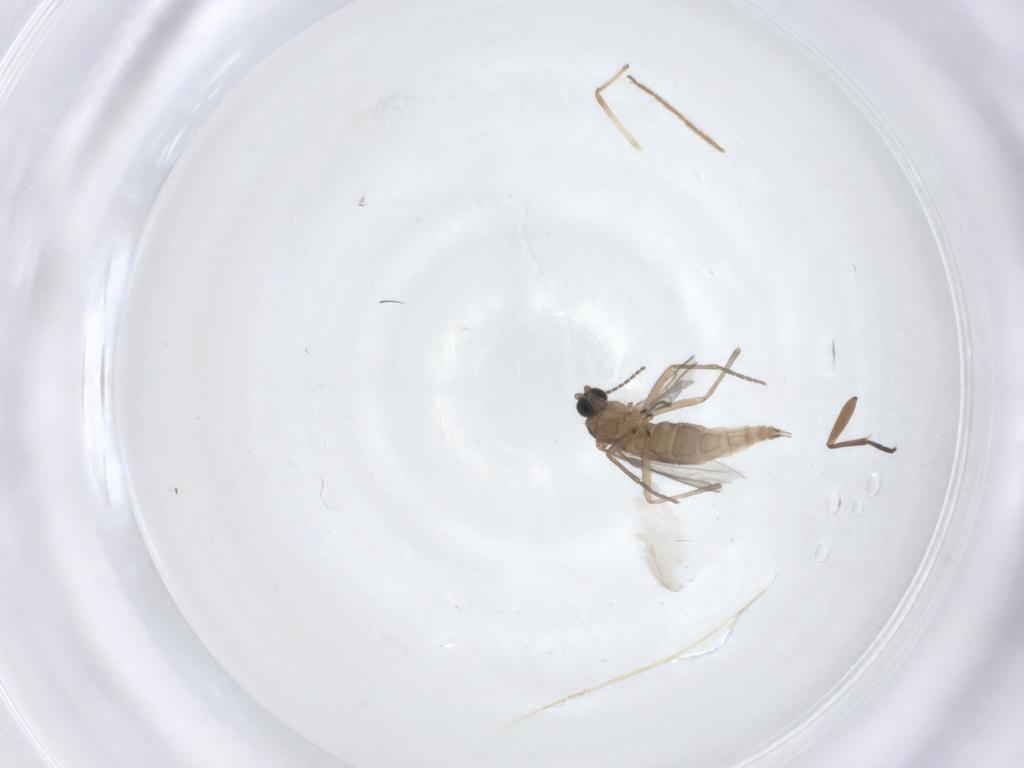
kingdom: Animalia
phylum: Arthropoda
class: Insecta
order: Diptera
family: Sciaridae
